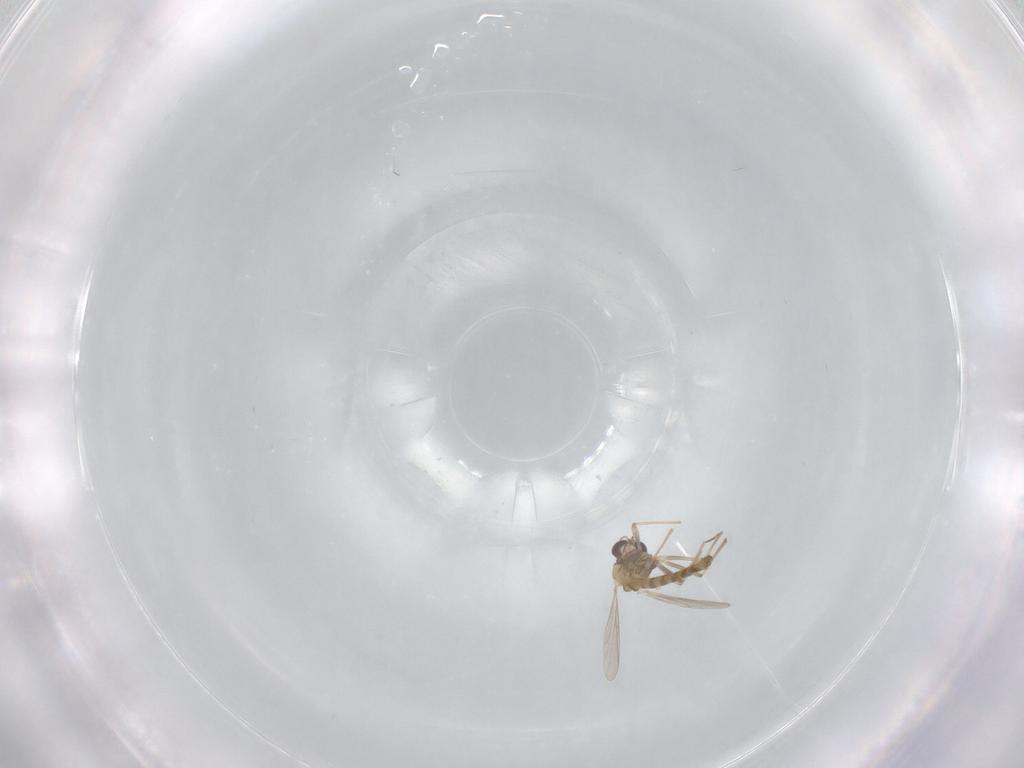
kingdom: Animalia
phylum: Arthropoda
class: Insecta
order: Diptera
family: Chironomidae
